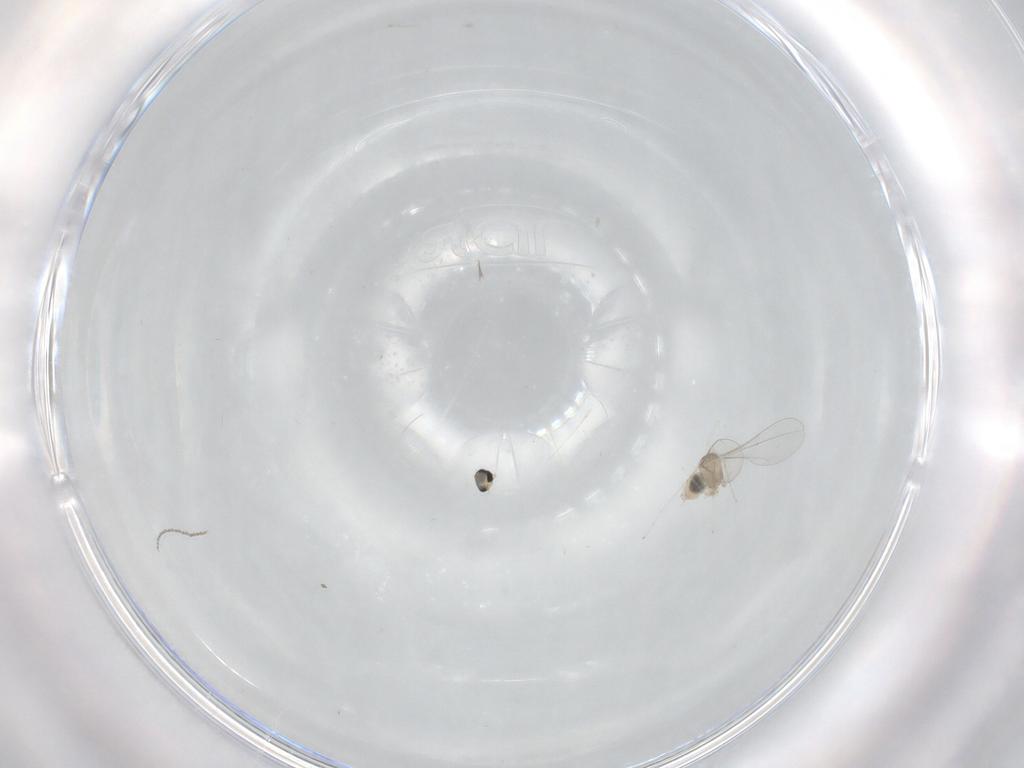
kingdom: Animalia
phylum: Arthropoda
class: Insecta
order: Diptera
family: Cecidomyiidae
